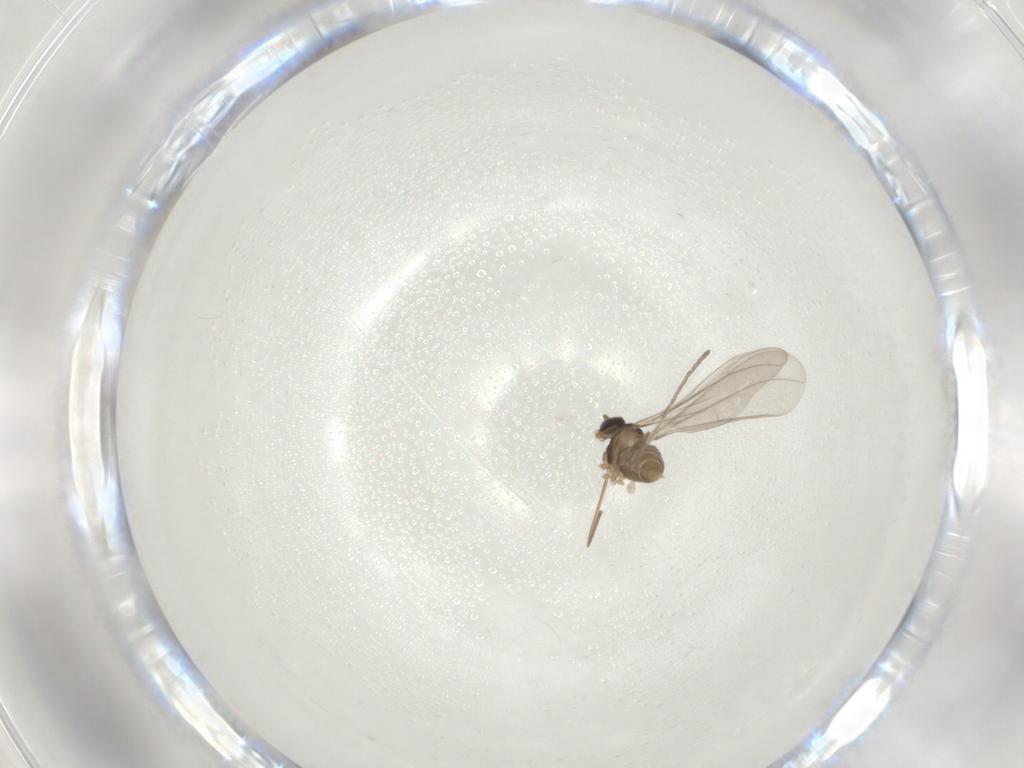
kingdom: Animalia
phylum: Arthropoda
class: Insecta
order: Diptera
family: Cecidomyiidae
